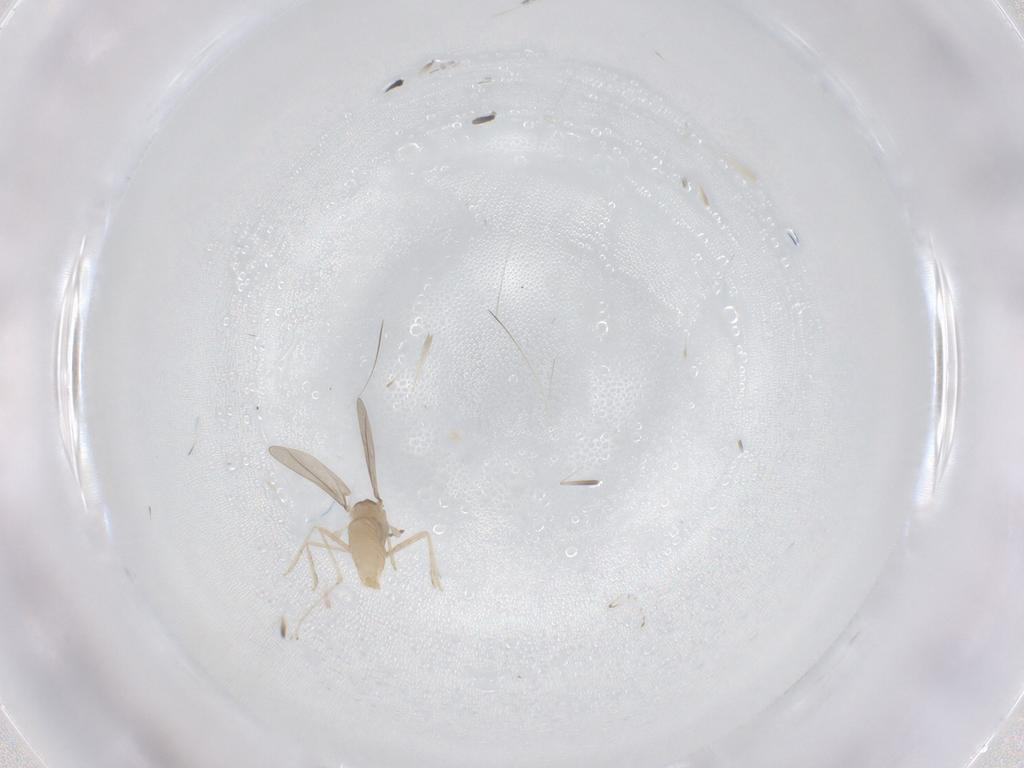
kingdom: Animalia
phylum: Arthropoda
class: Insecta
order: Diptera
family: Cecidomyiidae
